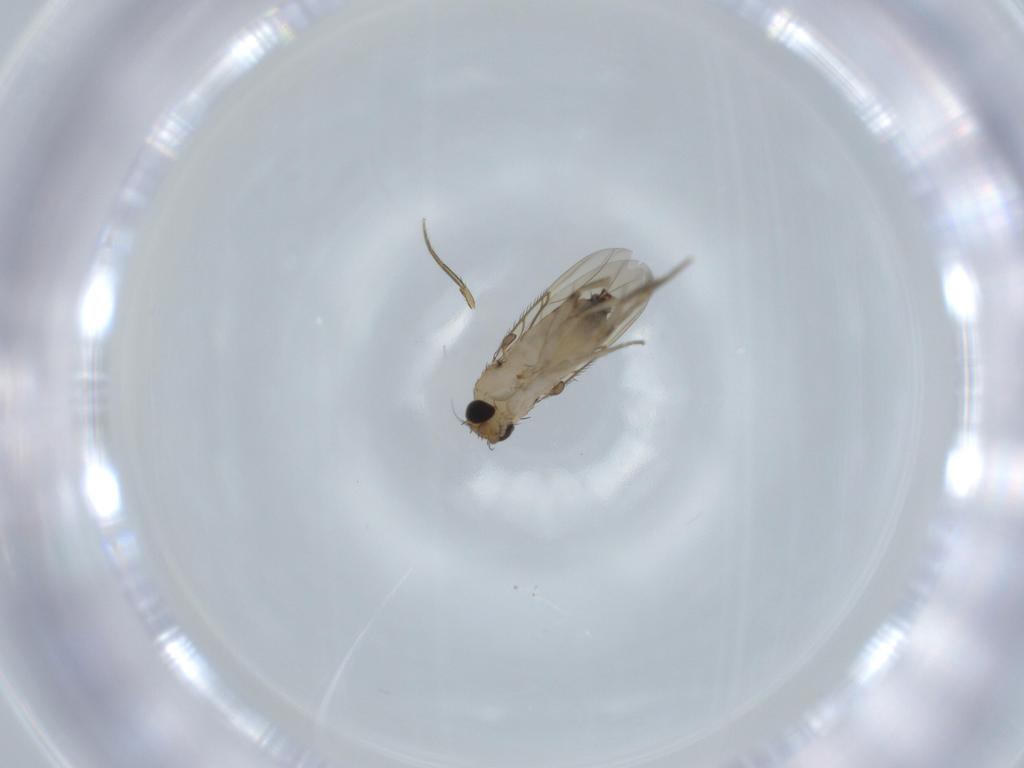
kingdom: Animalia
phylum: Arthropoda
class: Insecta
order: Diptera
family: Phoridae
